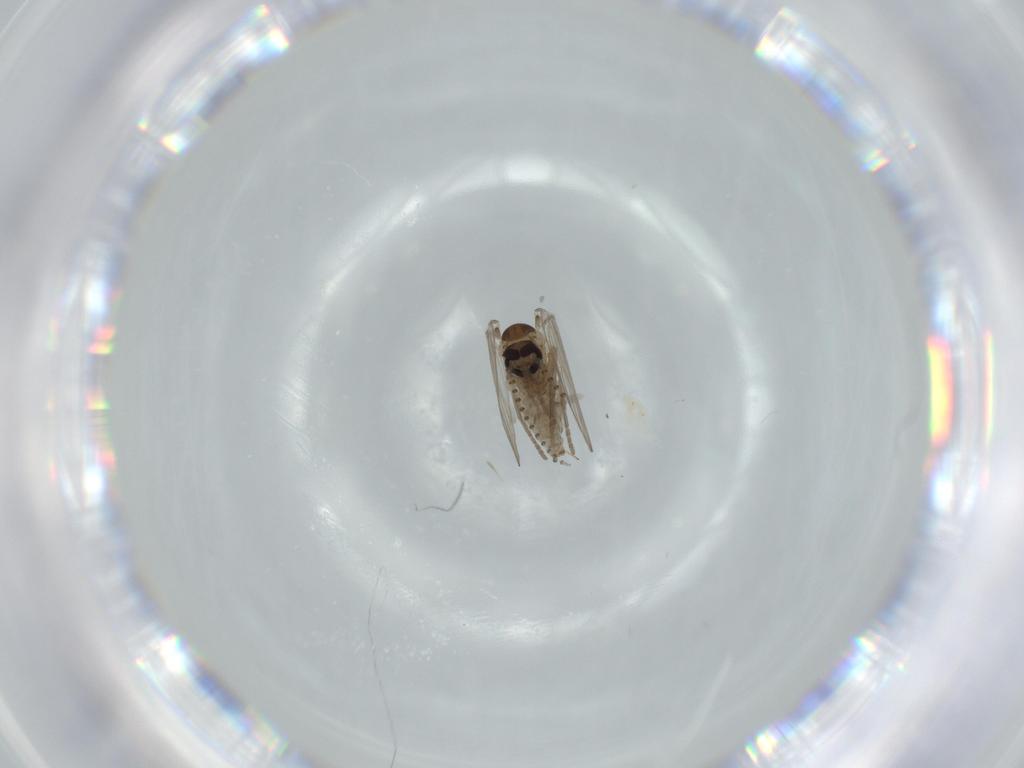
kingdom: Animalia
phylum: Arthropoda
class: Insecta
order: Diptera
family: Psychodidae
